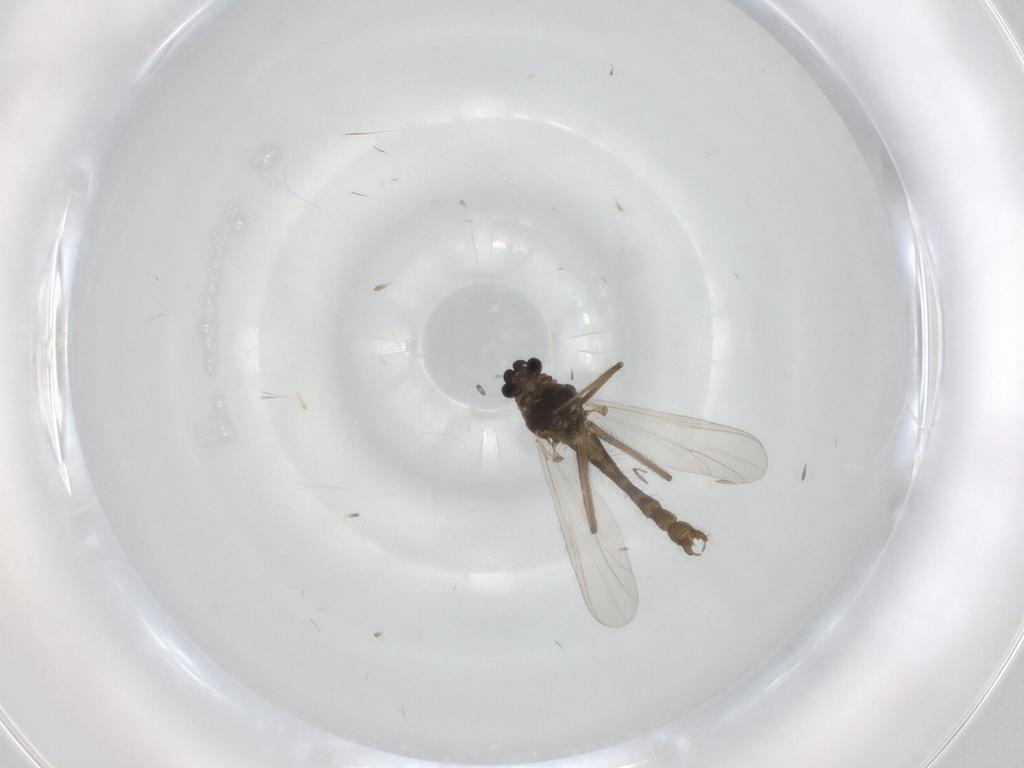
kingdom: Animalia
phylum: Arthropoda
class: Insecta
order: Diptera
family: Chironomidae
